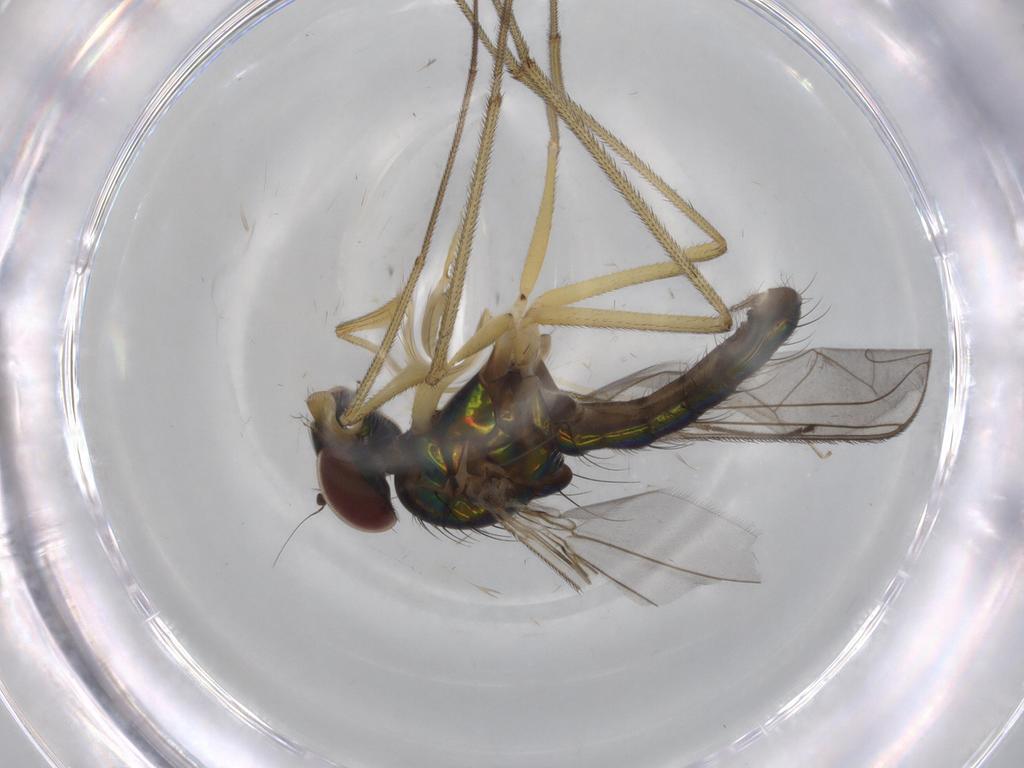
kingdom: Animalia
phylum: Arthropoda
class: Insecta
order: Diptera
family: Dolichopodidae
